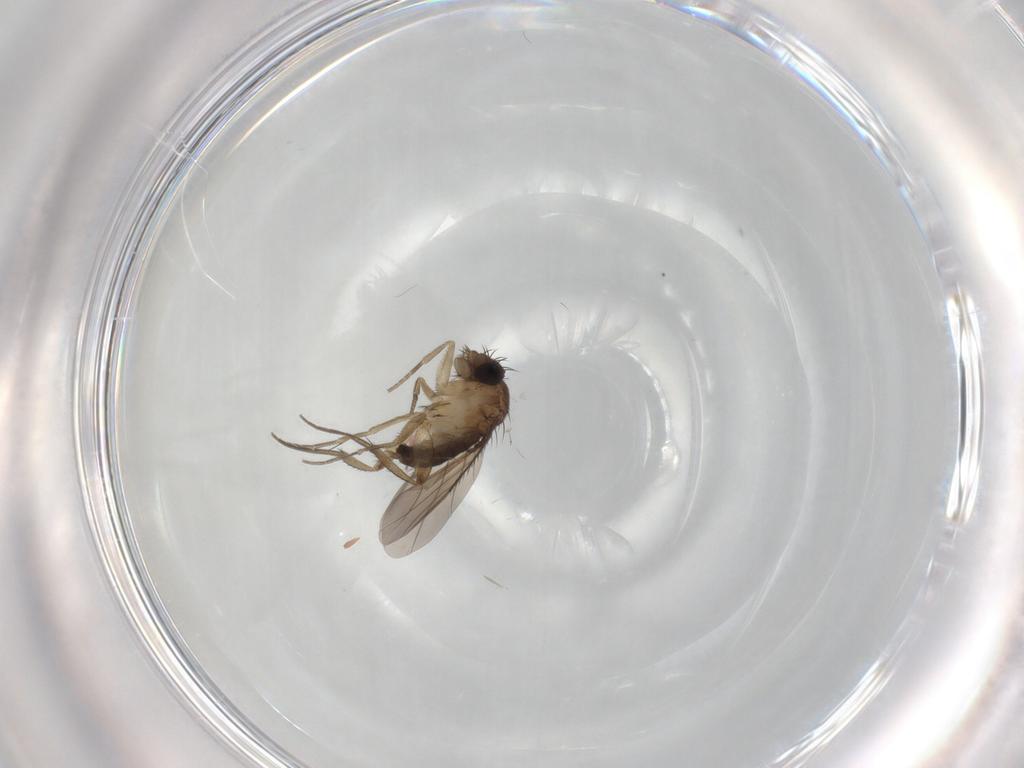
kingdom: Animalia
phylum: Arthropoda
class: Insecta
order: Diptera
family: Phoridae
